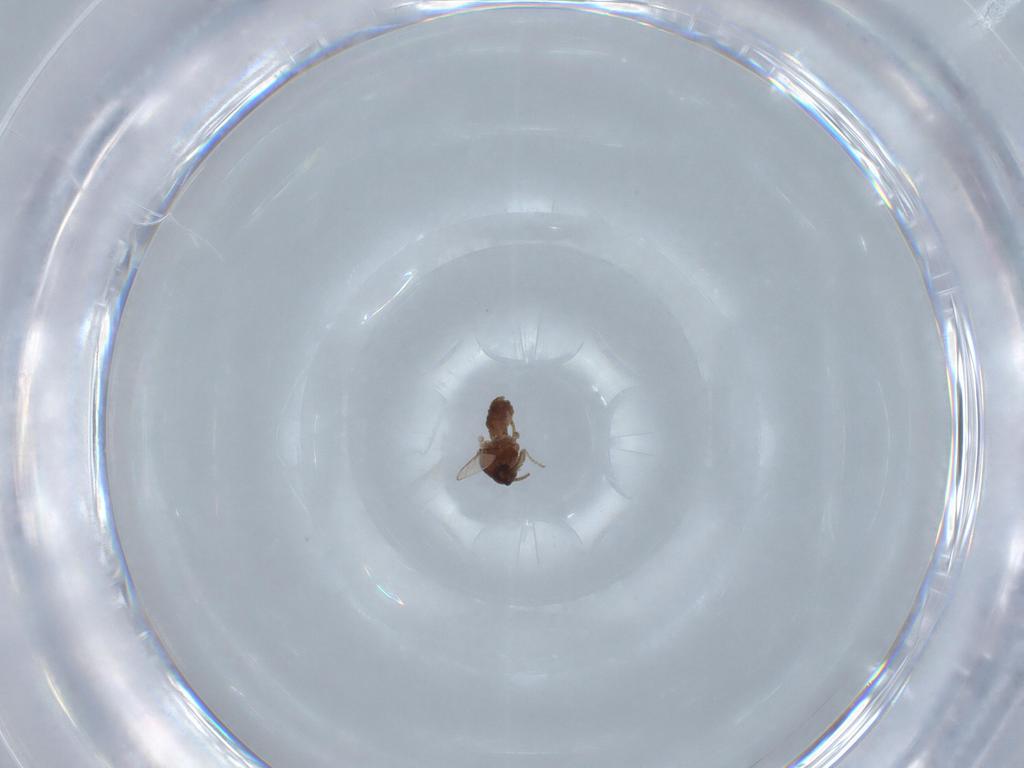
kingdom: Animalia
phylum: Arthropoda
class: Insecta
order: Diptera
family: Ceratopogonidae
